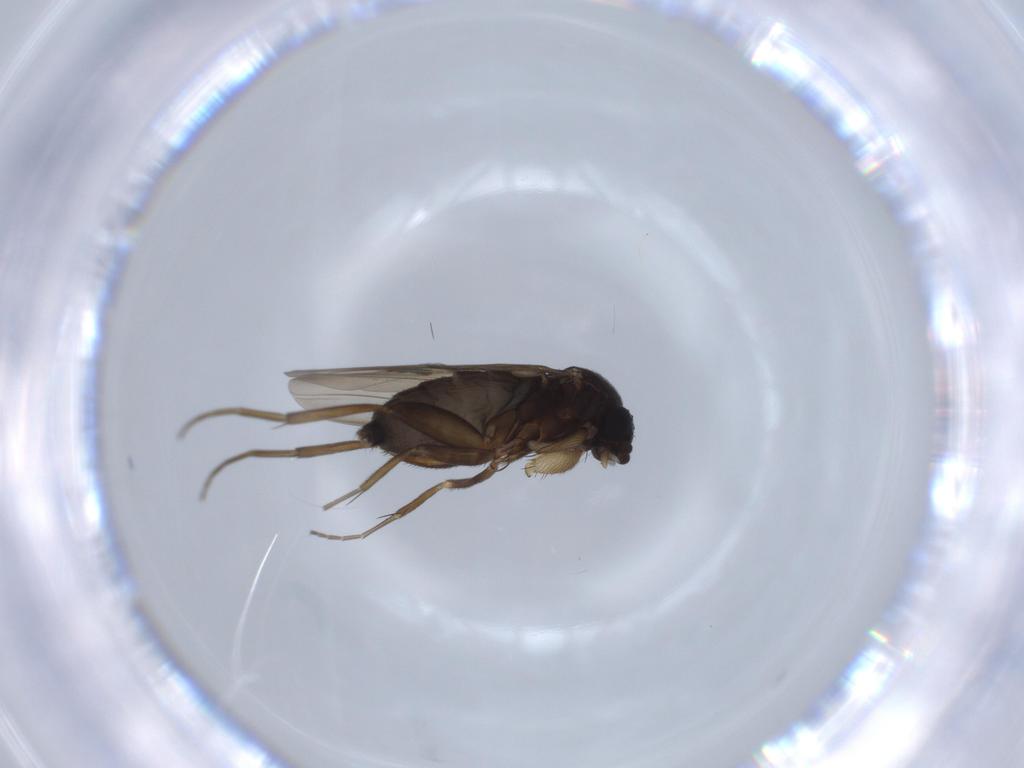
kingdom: Animalia
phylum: Arthropoda
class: Insecta
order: Diptera
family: Phoridae
